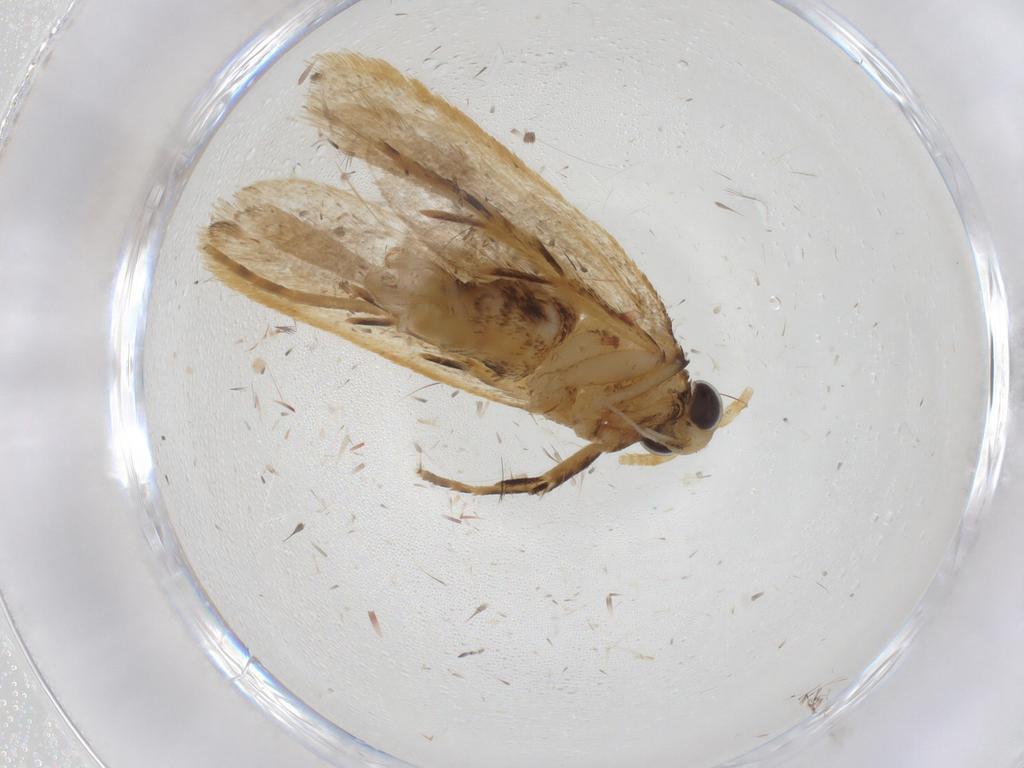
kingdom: Animalia
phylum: Arthropoda
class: Insecta
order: Lepidoptera
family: Lecithoceridae
